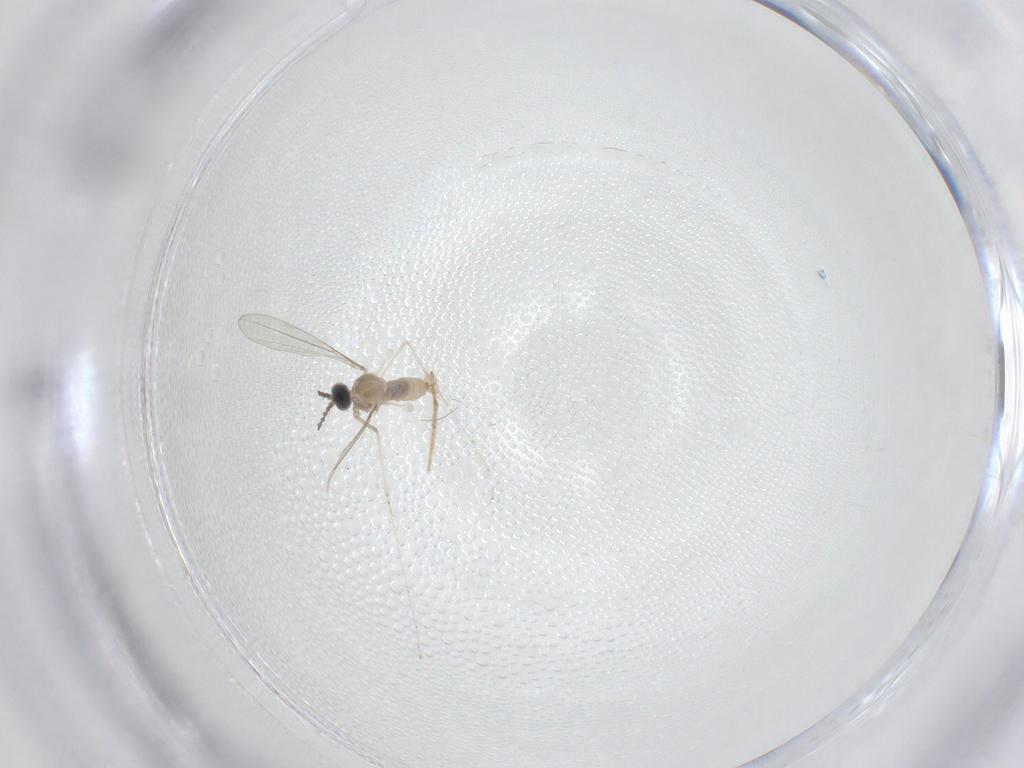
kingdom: Animalia
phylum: Arthropoda
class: Insecta
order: Diptera
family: Cecidomyiidae
